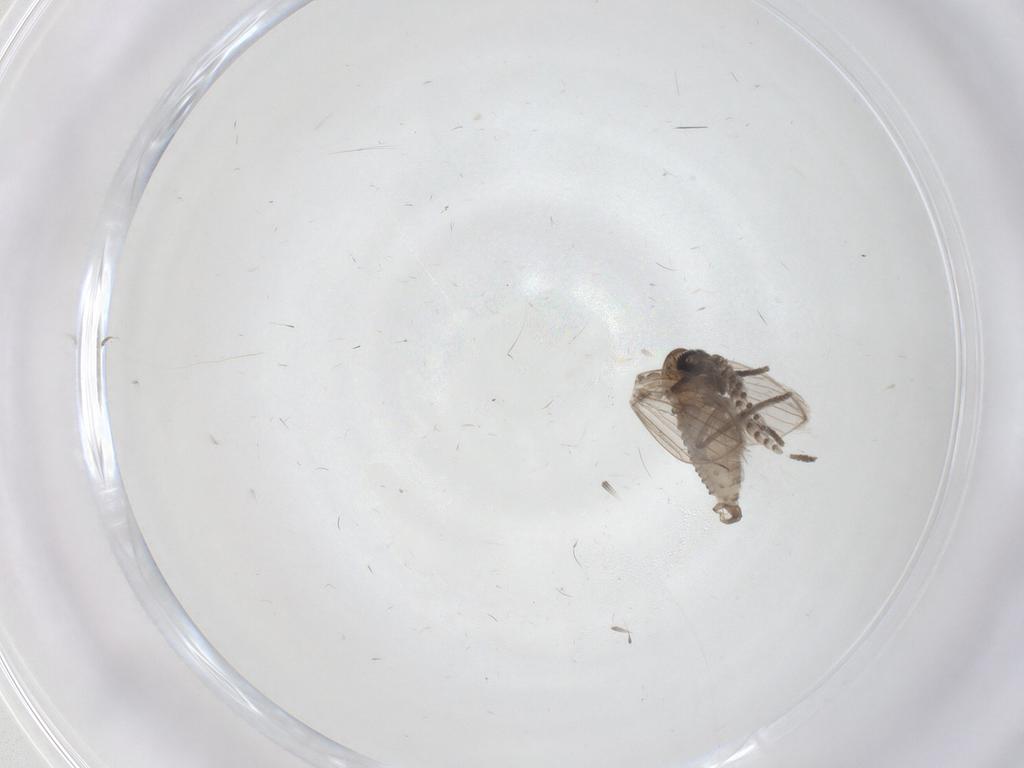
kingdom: Animalia
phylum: Arthropoda
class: Insecta
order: Diptera
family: Psychodidae
